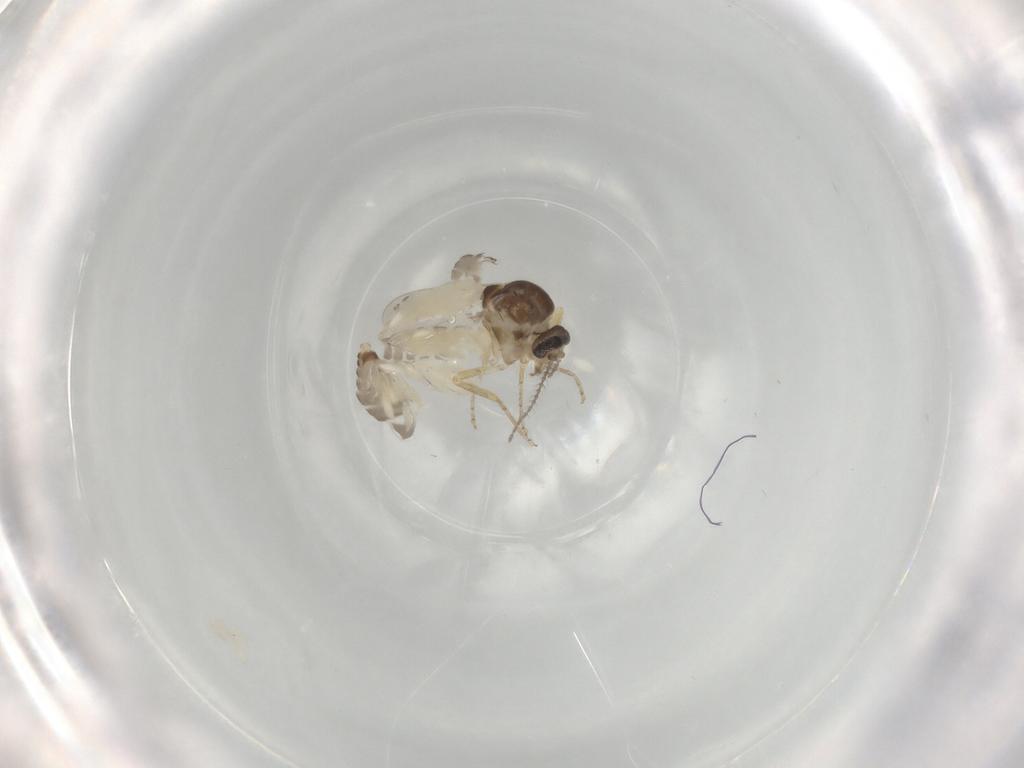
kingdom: Animalia
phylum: Arthropoda
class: Insecta
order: Diptera
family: Ceratopogonidae
